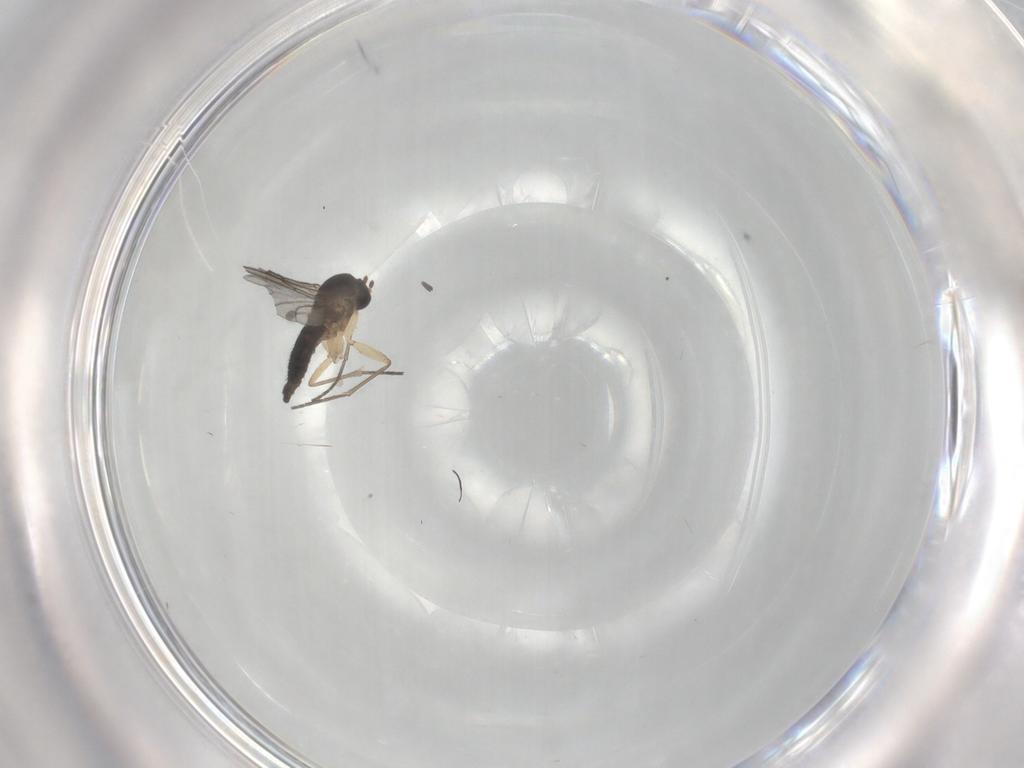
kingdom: Animalia
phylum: Arthropoda
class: Insecta
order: Diptera
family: Sciaridae
